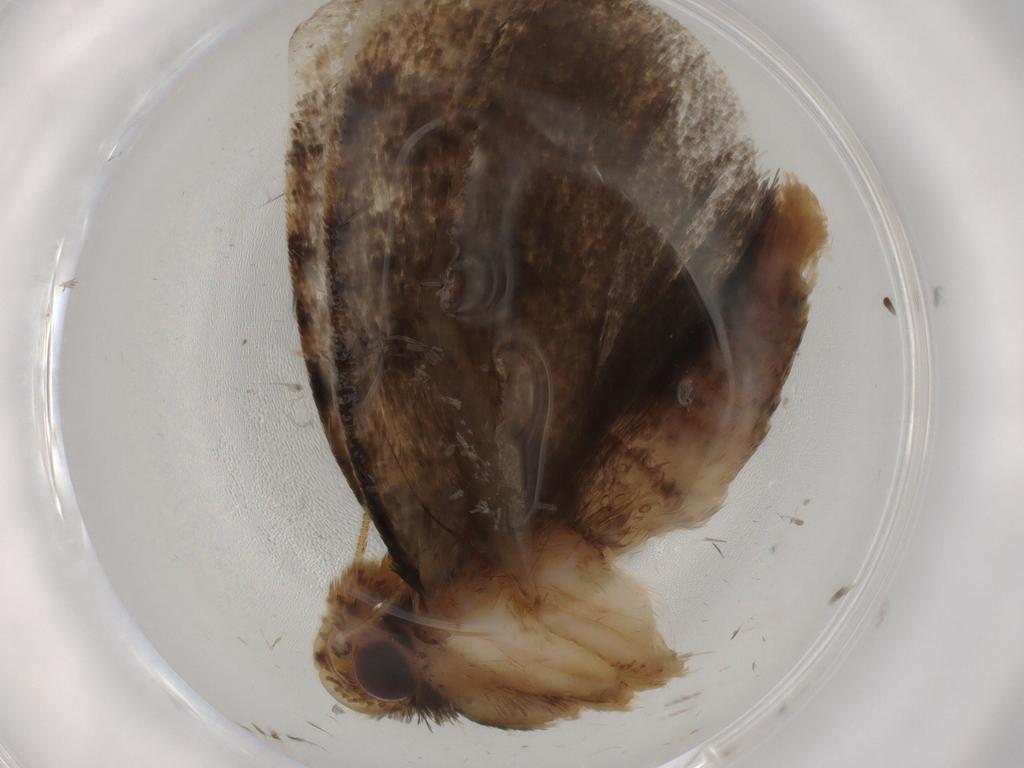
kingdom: Animalia
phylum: Arthropoda
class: Insecta
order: Lepidoptera
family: Tineidae
